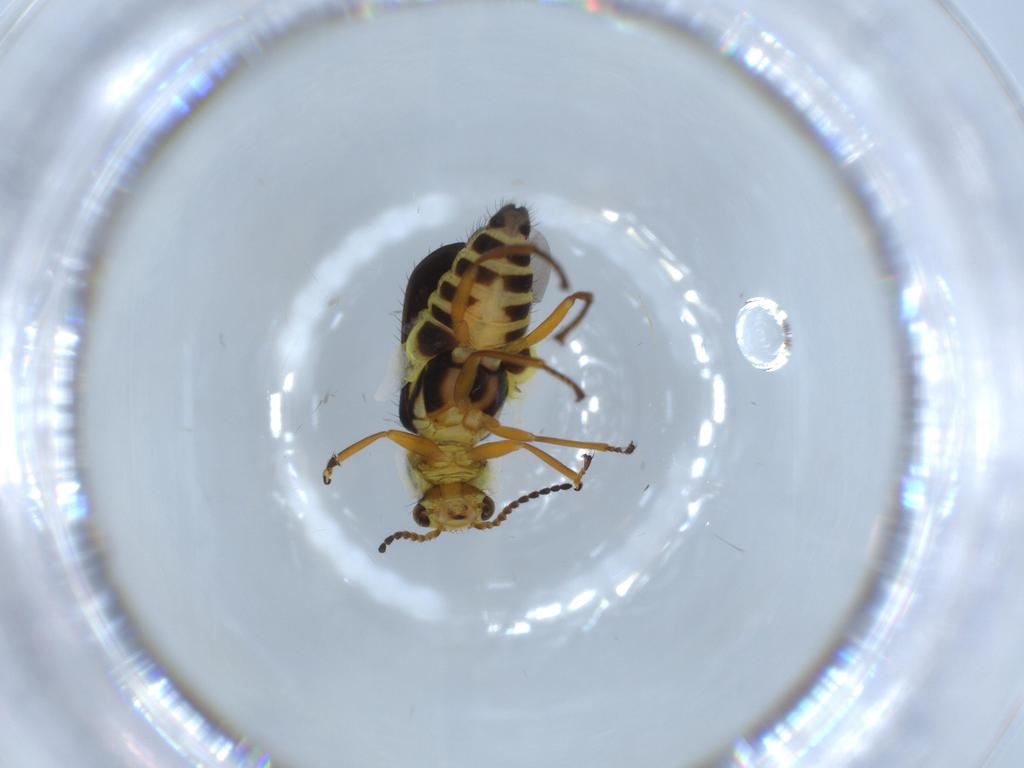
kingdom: Animalia
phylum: Arthropoda
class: Insecta
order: Coleoptera
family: Melyridae
